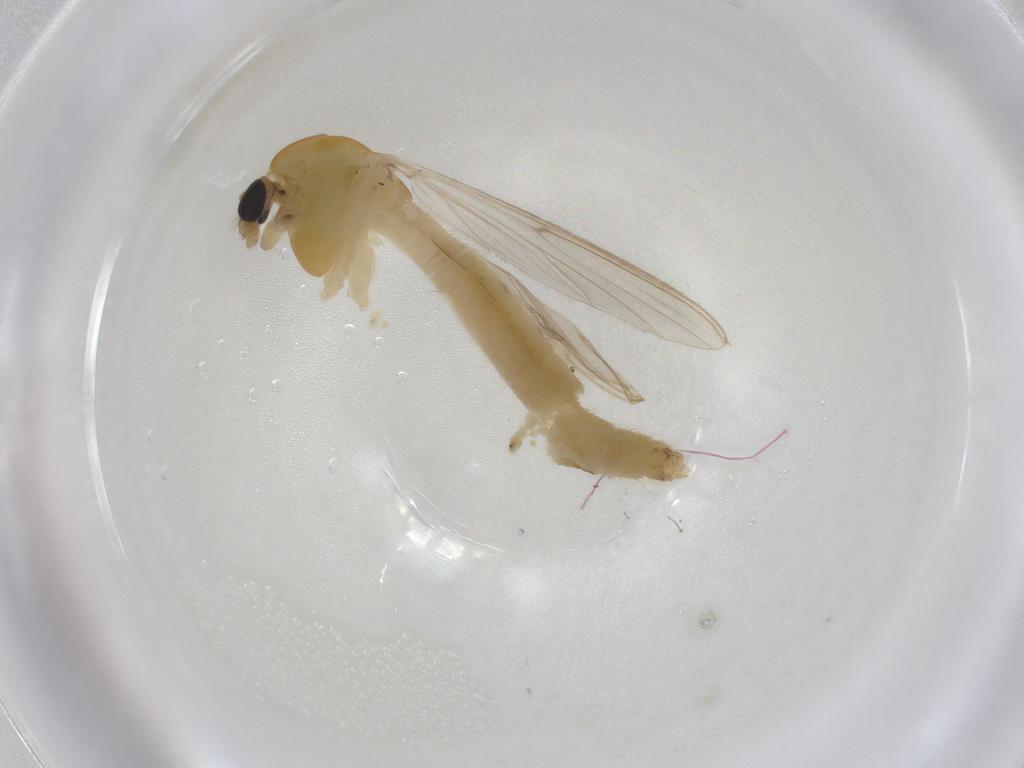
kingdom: Animalia
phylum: Arthropoda
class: Insecta
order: Diptera
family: Chironomidae
